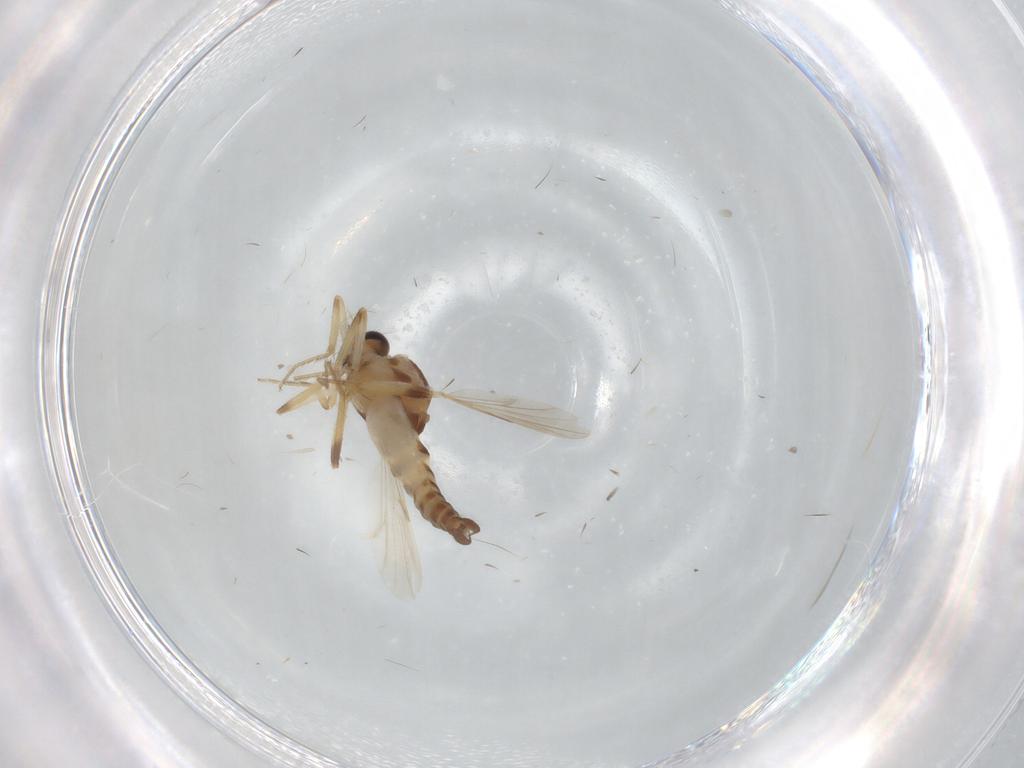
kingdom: Animalia
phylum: Arthropoda
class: Insecta
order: Diptera
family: Ceratopogonidae
